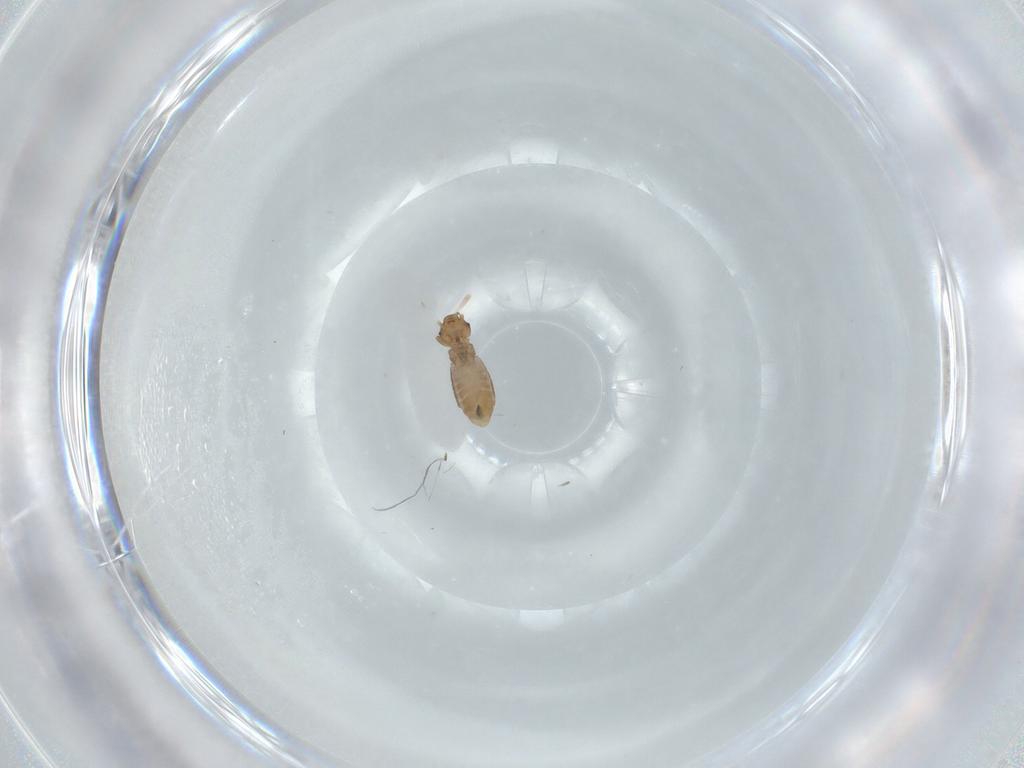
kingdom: Animalia
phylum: Arthropoda
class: Insecta
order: Psocodea
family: Liposcelididae
